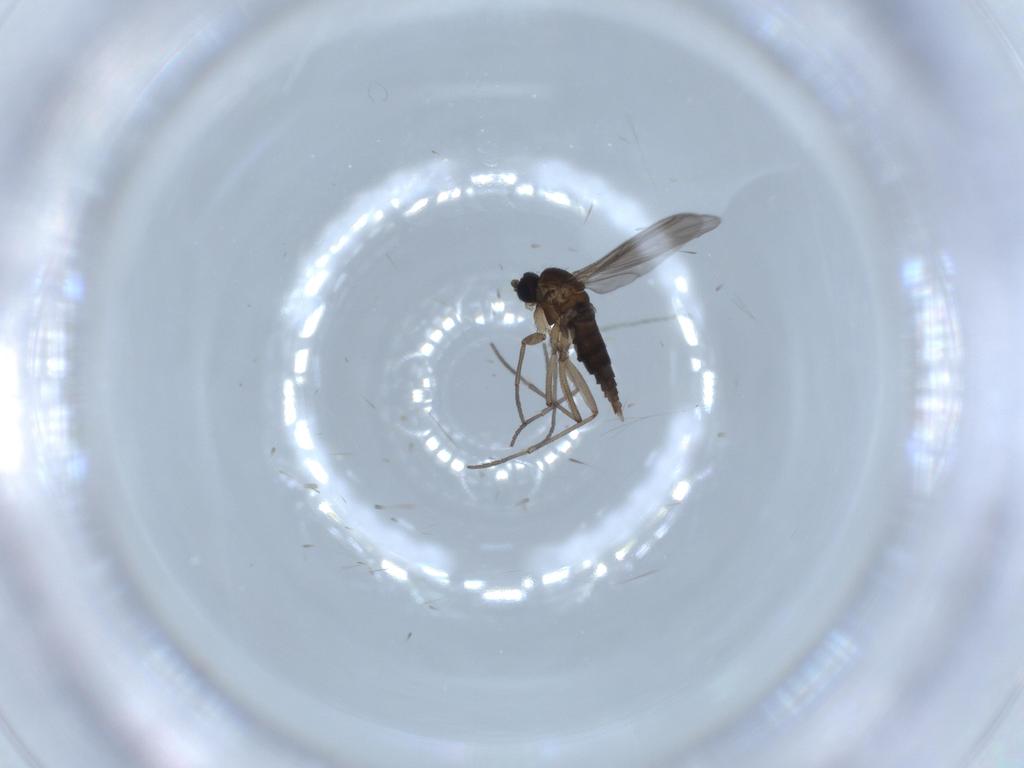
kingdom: Animalia
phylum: Arthropoda
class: Insecta
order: Diptera
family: Sciaridae
